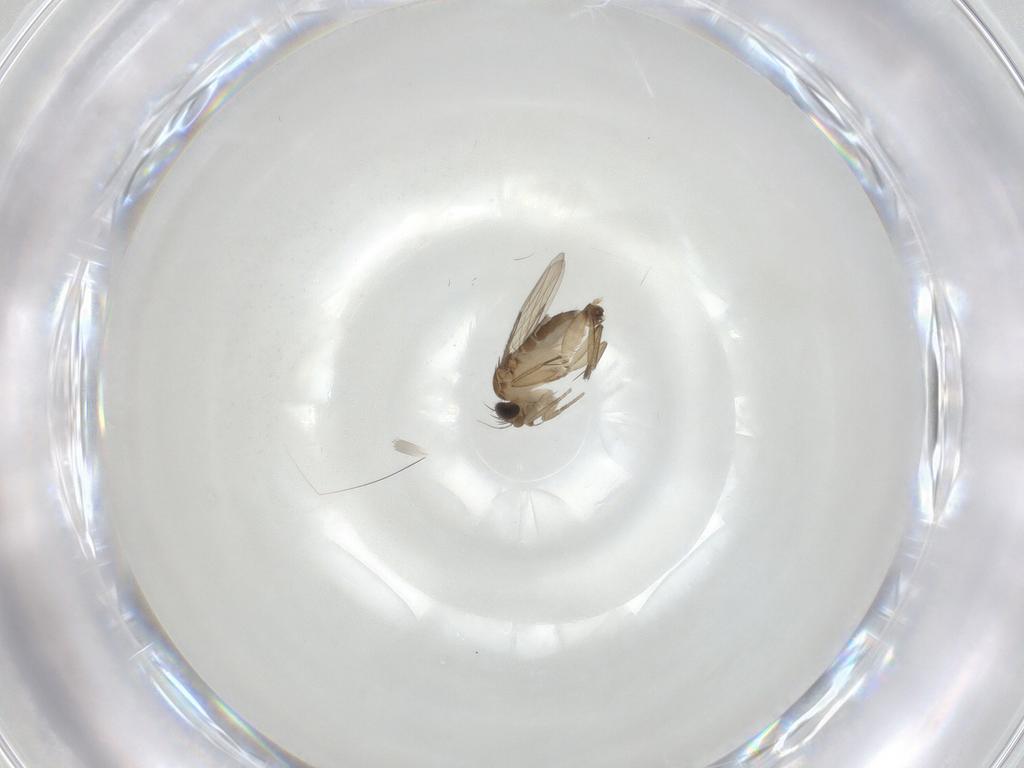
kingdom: Animalia
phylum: Arthropoda
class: Insecta
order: Diptera
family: Phoridae
